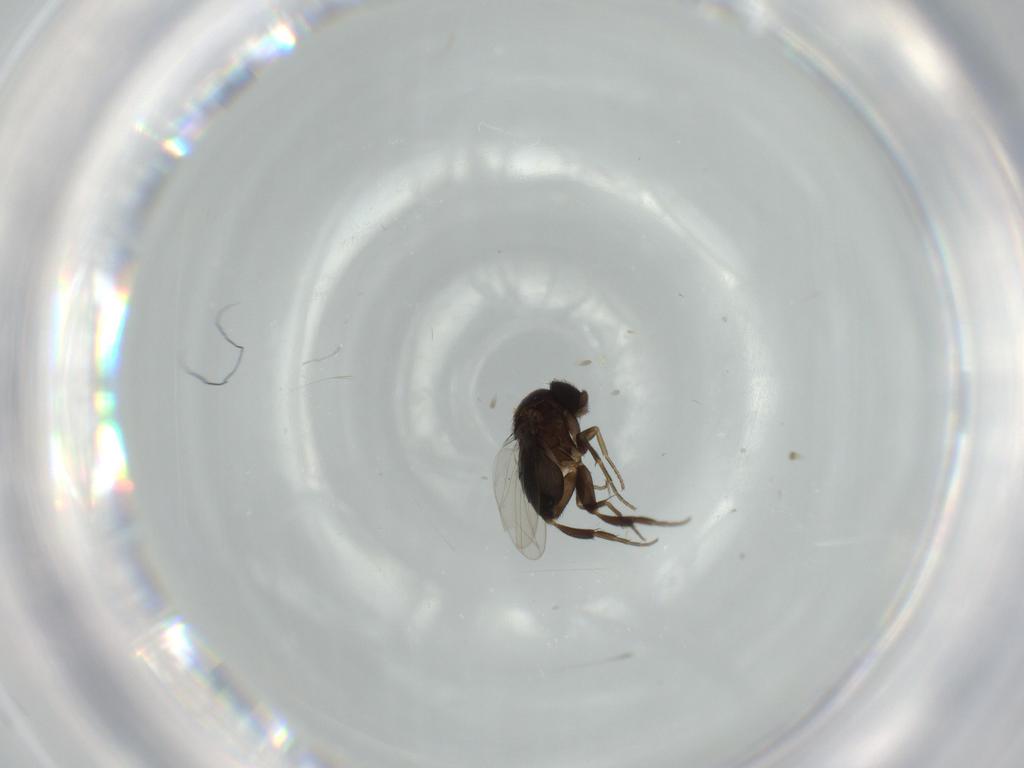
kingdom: Animalia
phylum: Arthropoda
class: Insecta
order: Diptera
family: Phoridae
